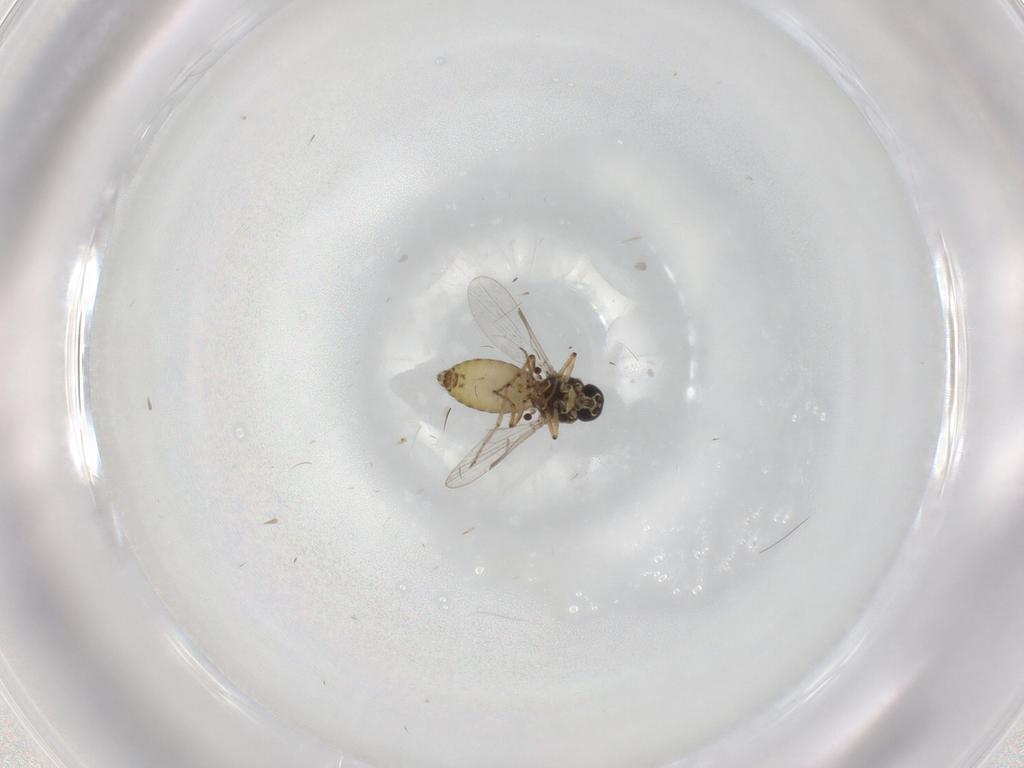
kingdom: Animalia
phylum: Arthropoda
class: Insecta
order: Diptera
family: Ceratopogonidae
